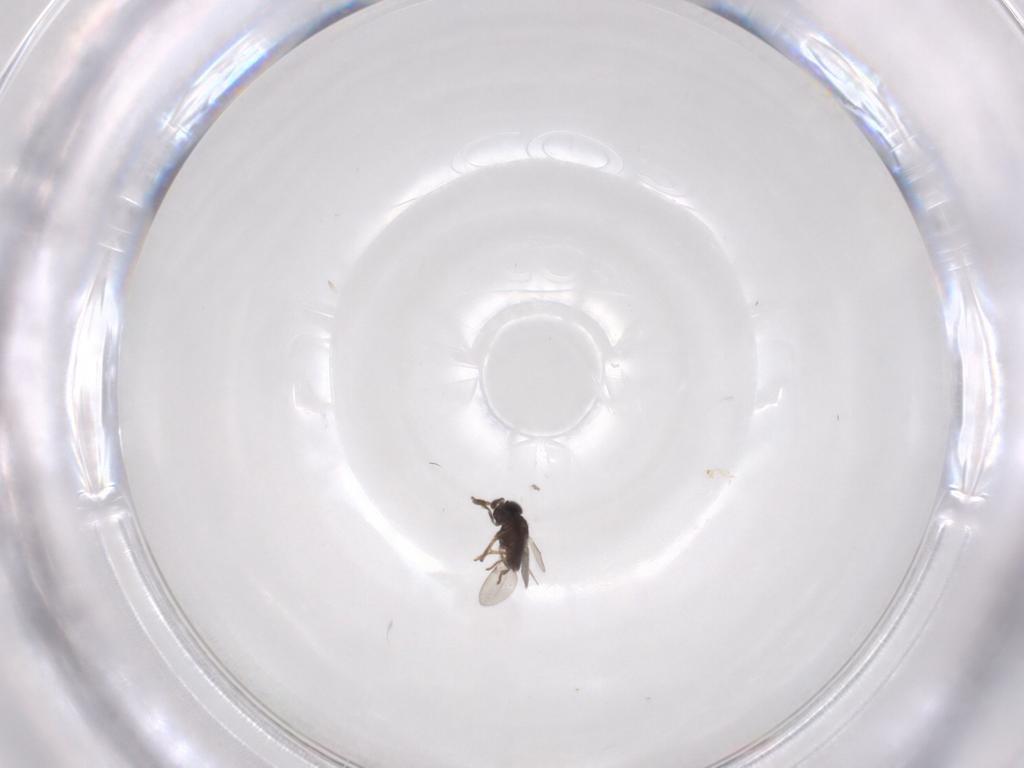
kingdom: Animalia
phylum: Arthropoda
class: Insecta
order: Hymenoptera
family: Encyrtidae
